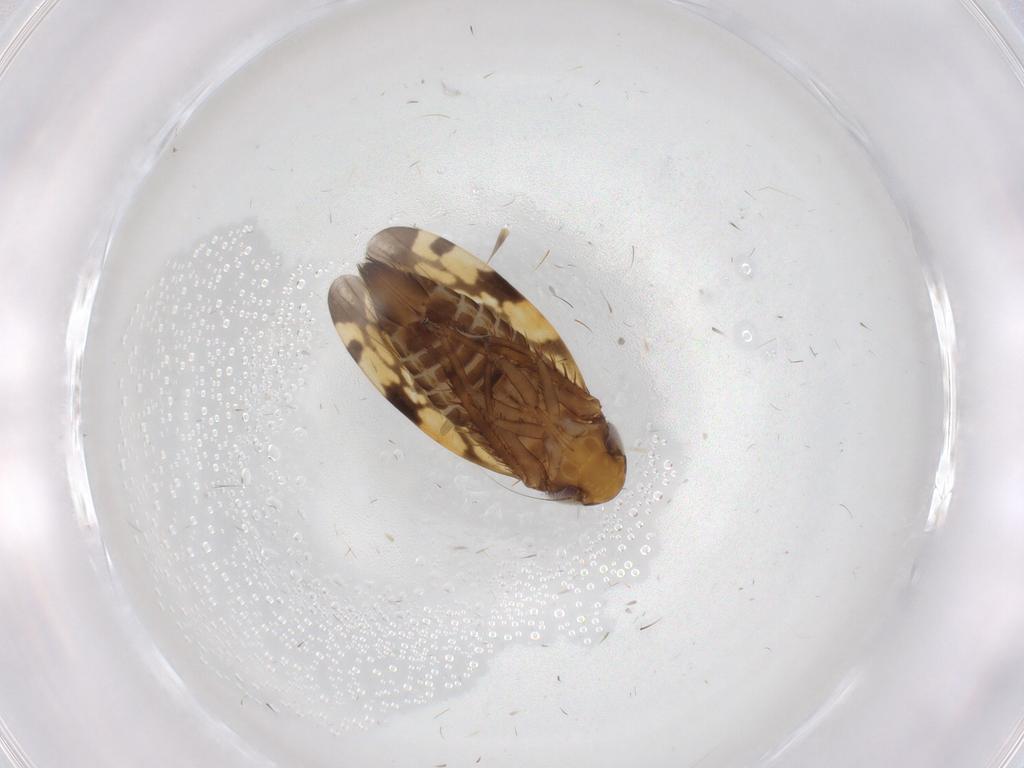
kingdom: Animalia
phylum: Arthropoda
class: Insecta
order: Hemiptera
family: Cicadellidae
